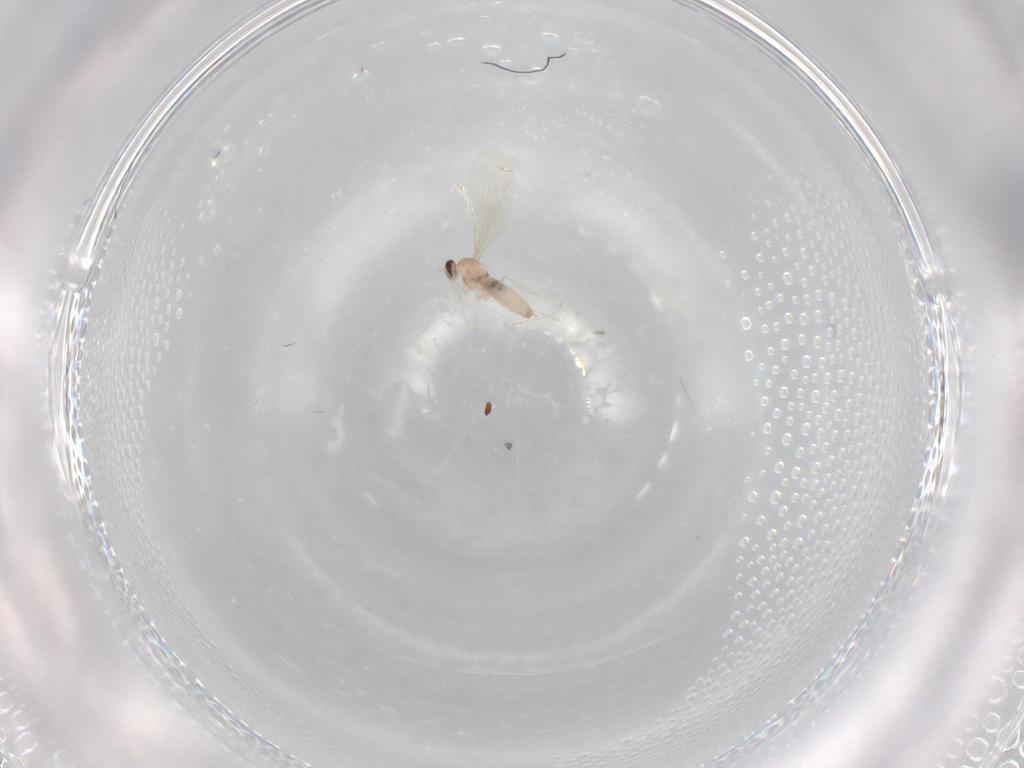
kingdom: Animalia
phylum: Arthropoda
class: Insecta
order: Diptera
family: Cecidomyiidae
